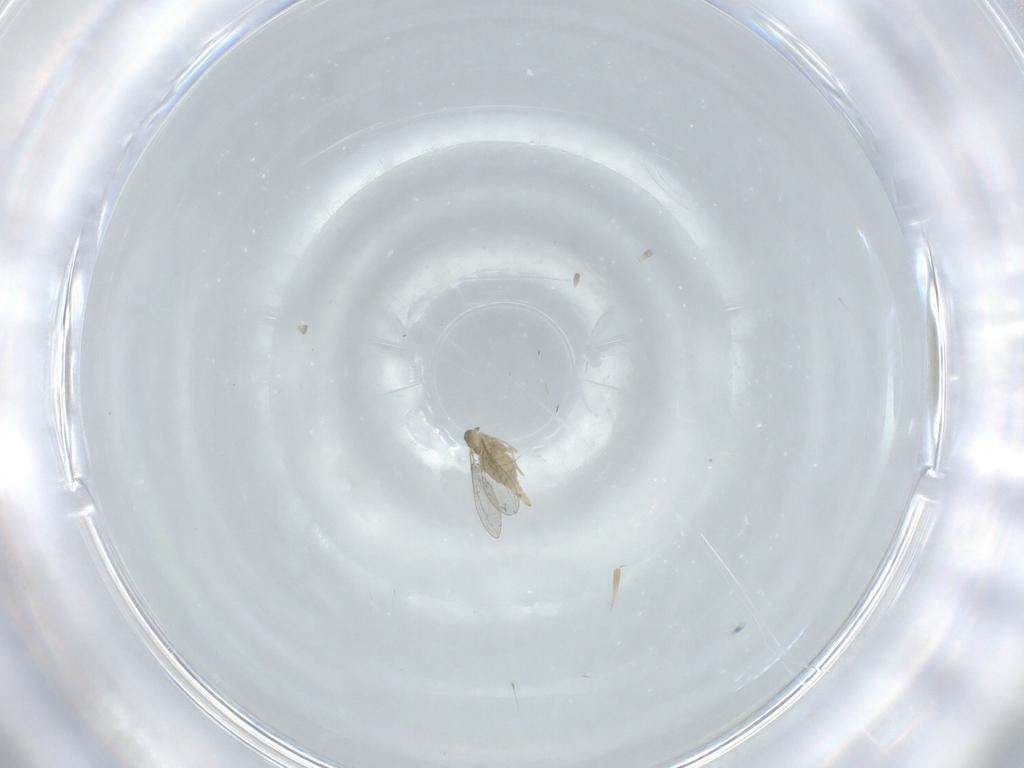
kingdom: Animalia
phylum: Arthropoda
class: Insecta
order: Diptera
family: Cecidomyiidae
